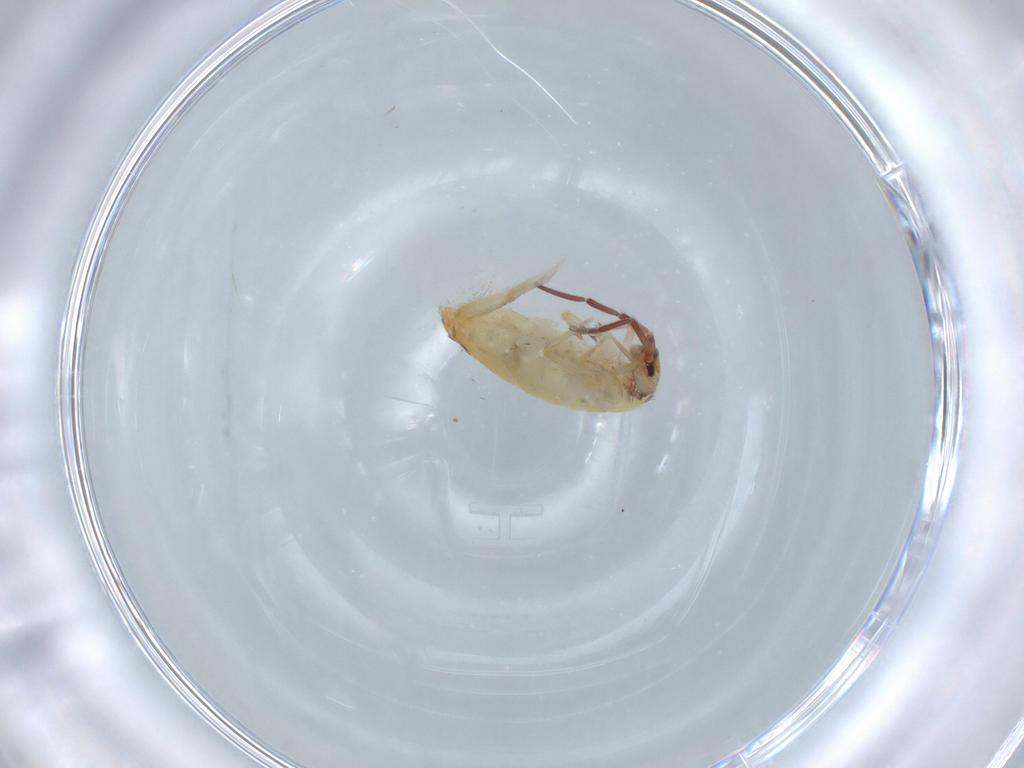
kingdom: Animalia
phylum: Arthropoda
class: Collembola
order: Entomobryomorpha
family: Entomobryidae
